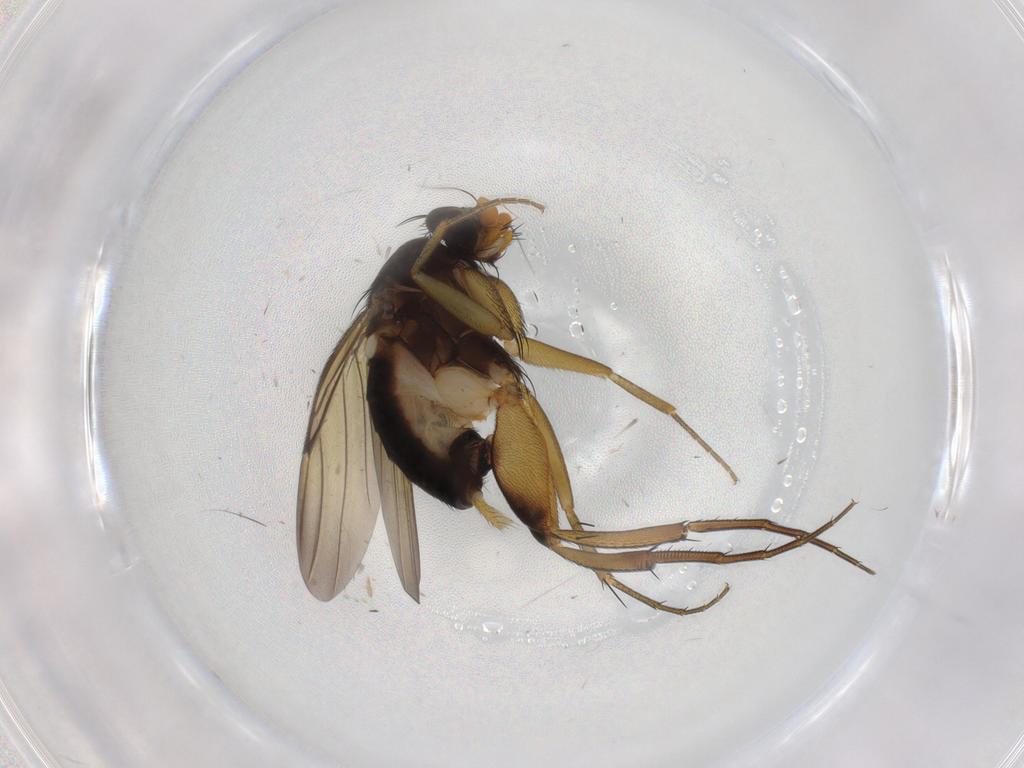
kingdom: Animalia
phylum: Arthropoda
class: Insecta
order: Diptera
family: Phoridae
